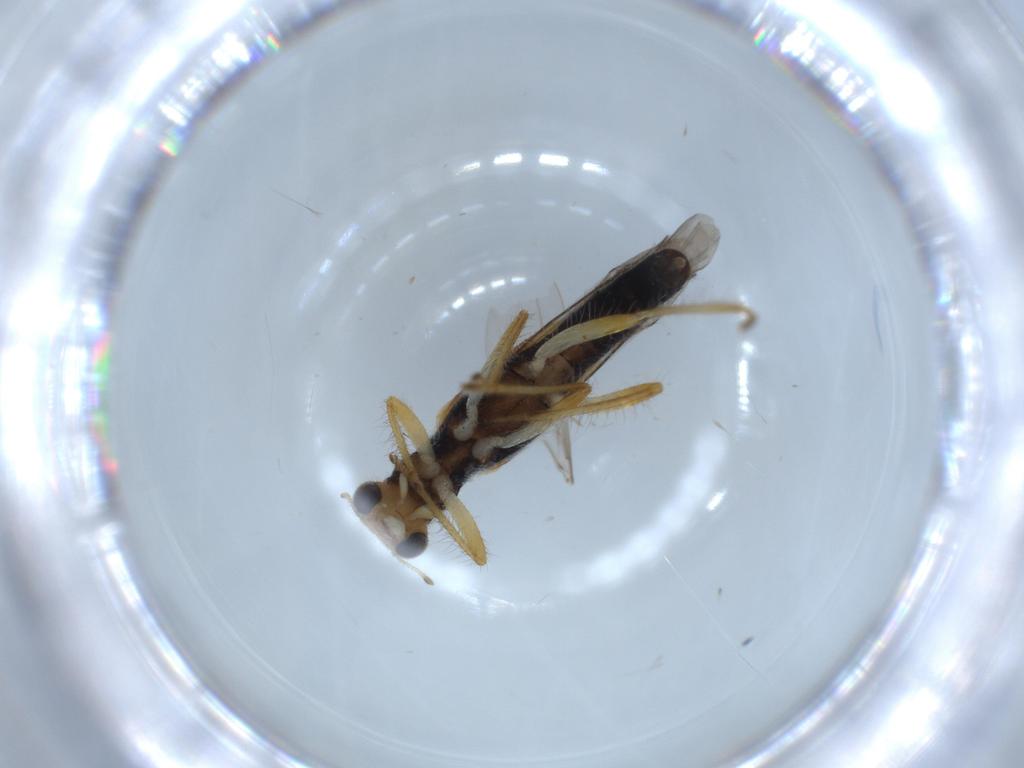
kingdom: Animalia
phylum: Arthropoda
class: Insecta
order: Coleoptera
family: Cleridae
